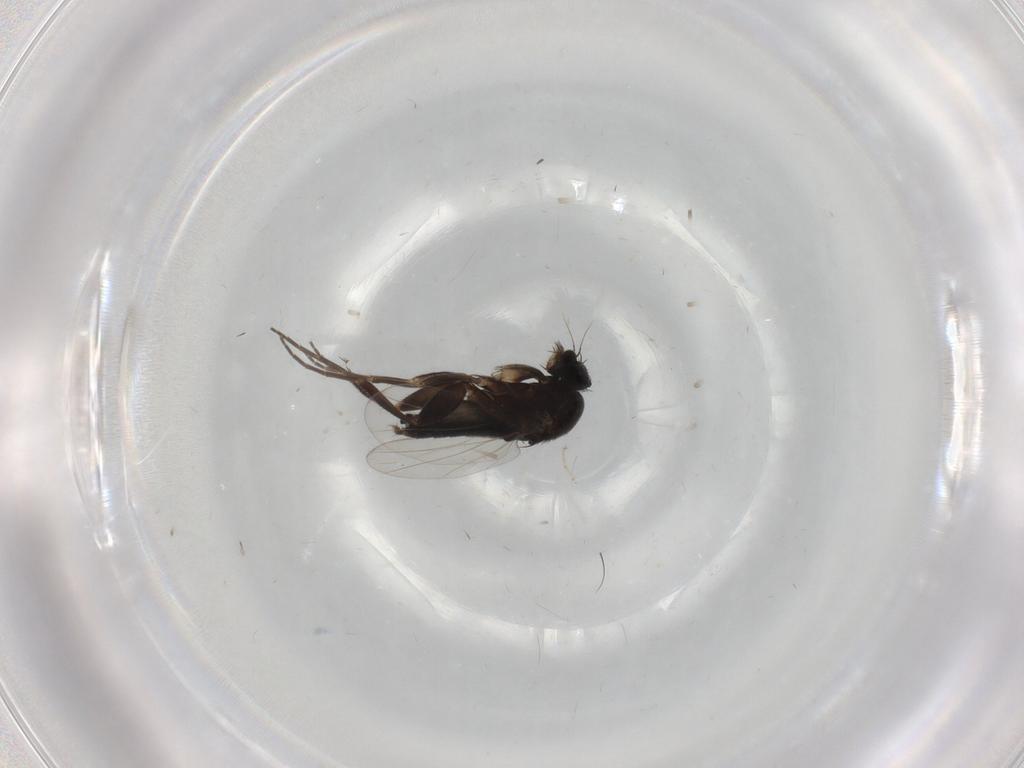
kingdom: Animalia
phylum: Arthropoda
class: Insecta
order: Diptera
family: Phoridae
